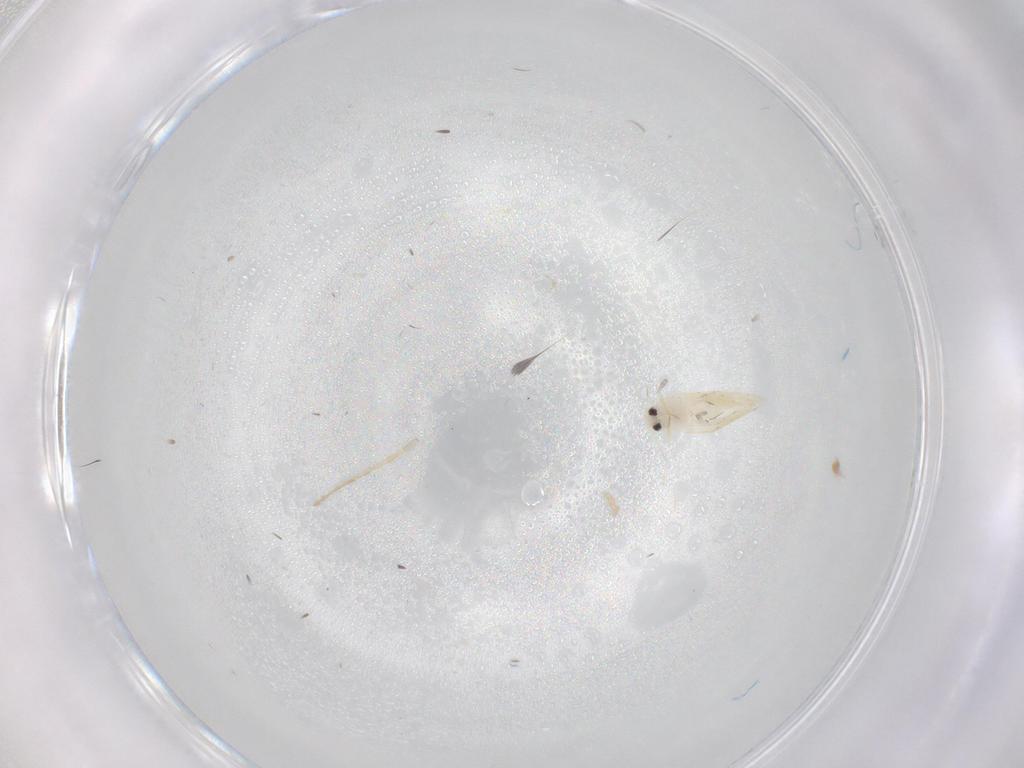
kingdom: Animalia
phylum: Arthropoda
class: Insecta
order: Hemiptera
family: Aleyrodidae
